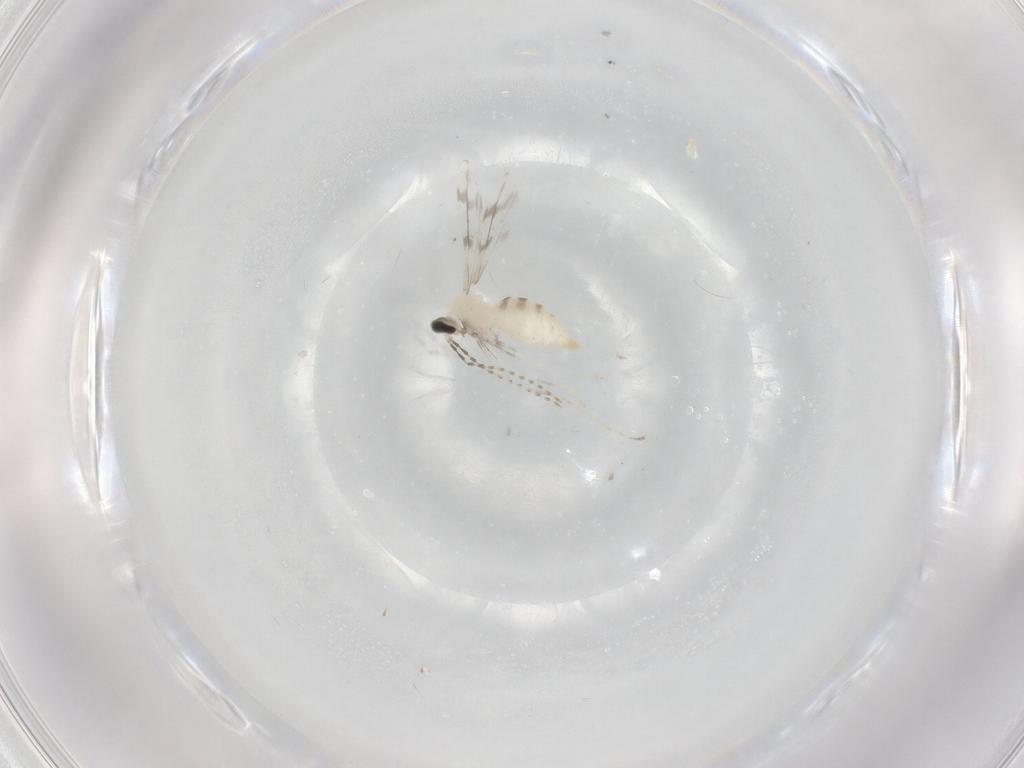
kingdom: Animalia
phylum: Arthropoda
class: Insecta
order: Diptera
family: Cecidomyiidae
